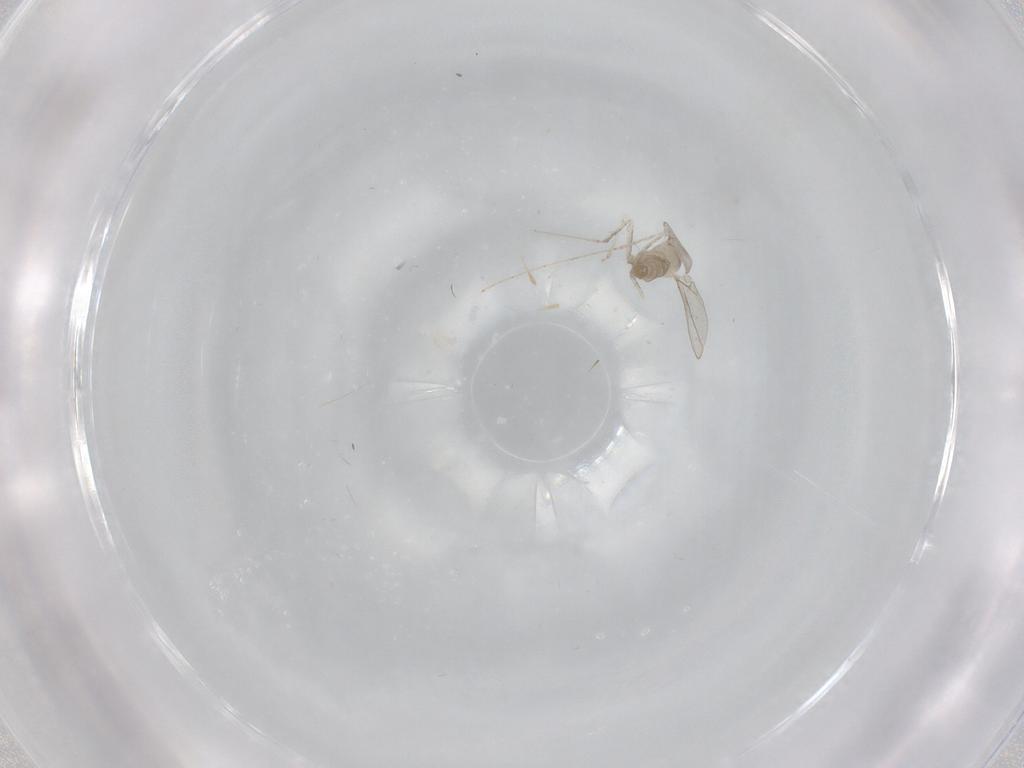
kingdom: Animalia
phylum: Arthropoda
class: Insecta
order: Diptera
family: Cecidomyiidae
